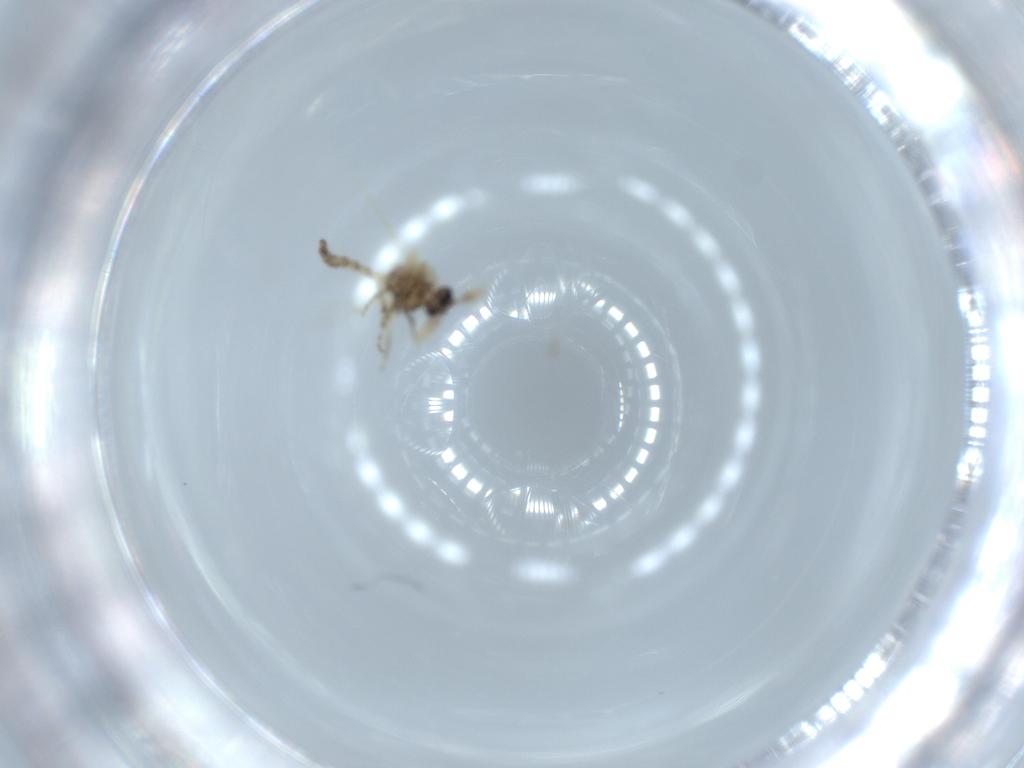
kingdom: Animalia
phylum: Arthropoda
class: Insecta
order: Diptera
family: Ceratopogonidae
